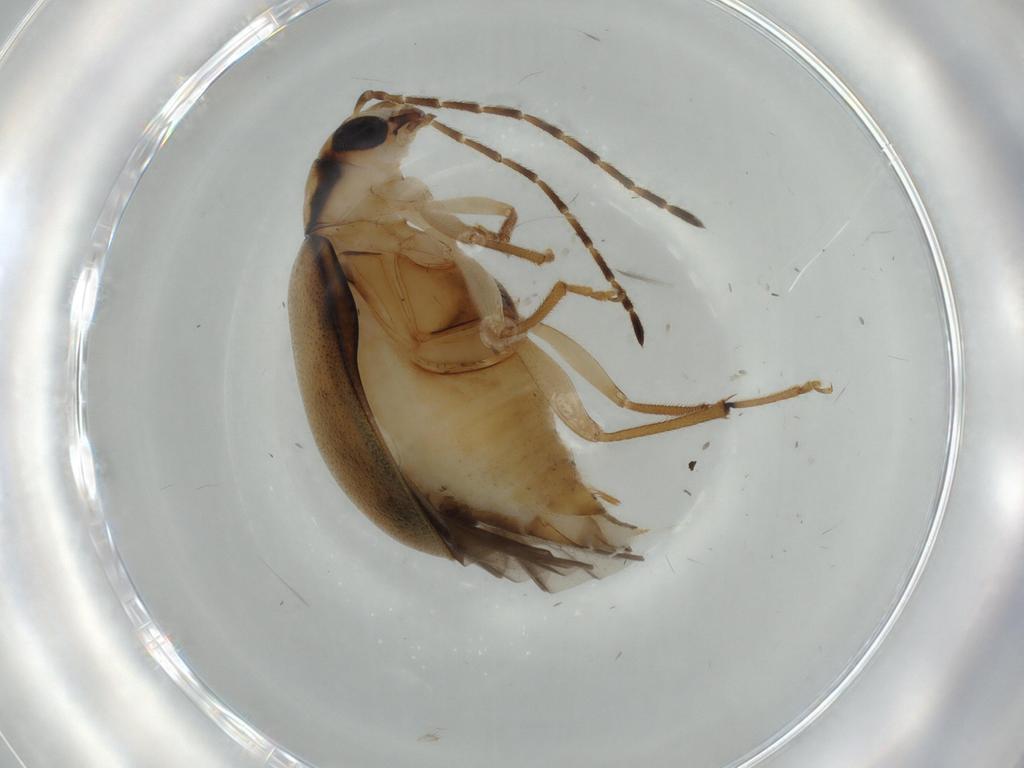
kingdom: Animalia
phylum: Arthropoda
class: Insecta
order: Coleoptera
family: Chrysomelidae
